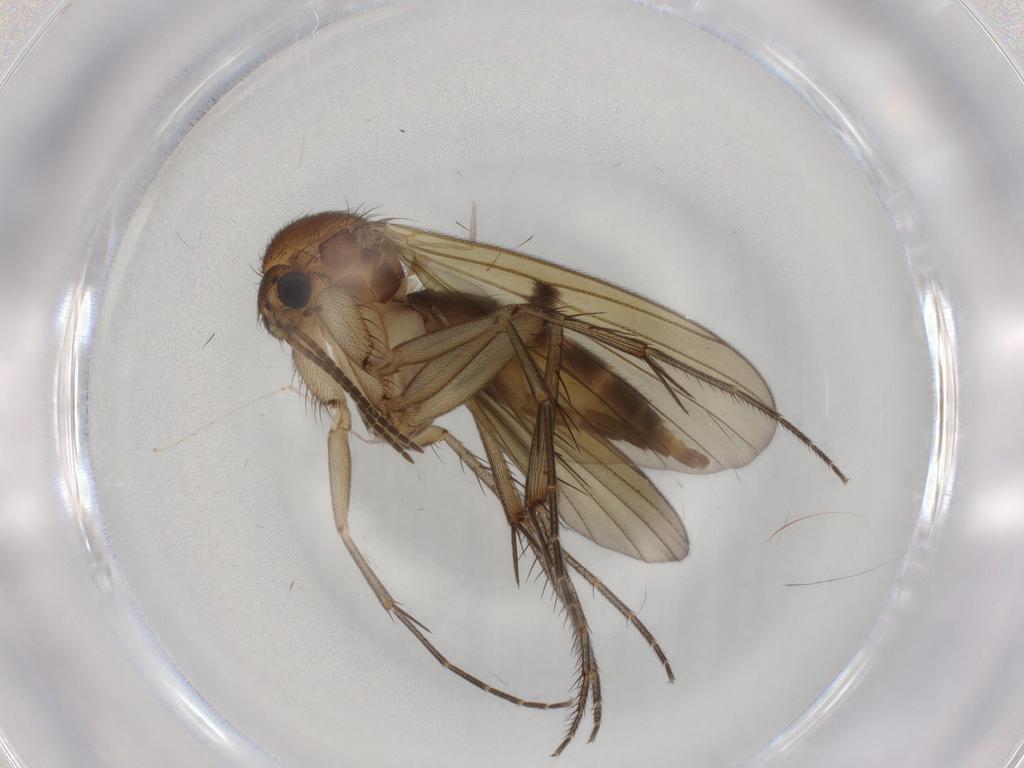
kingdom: Animalia
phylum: Arthropoda
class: Insecta
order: Diptera
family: Mycetophilidae
